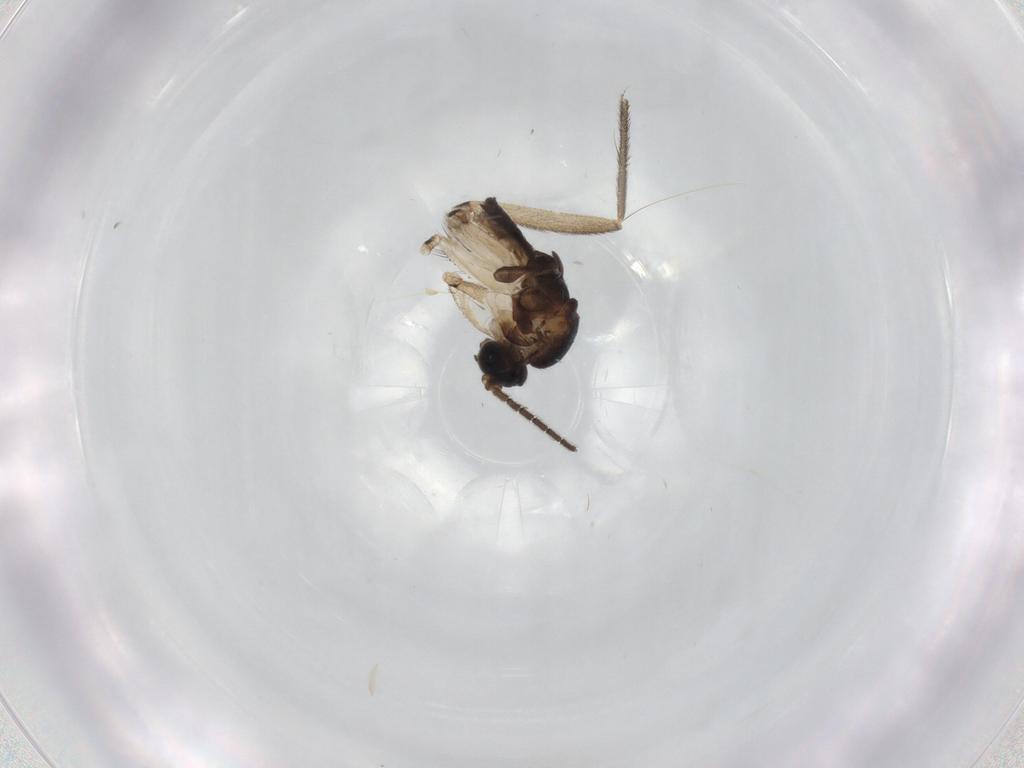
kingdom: Animalia
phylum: Arthropoda
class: Insecta
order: Diptera
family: Sciaridae
